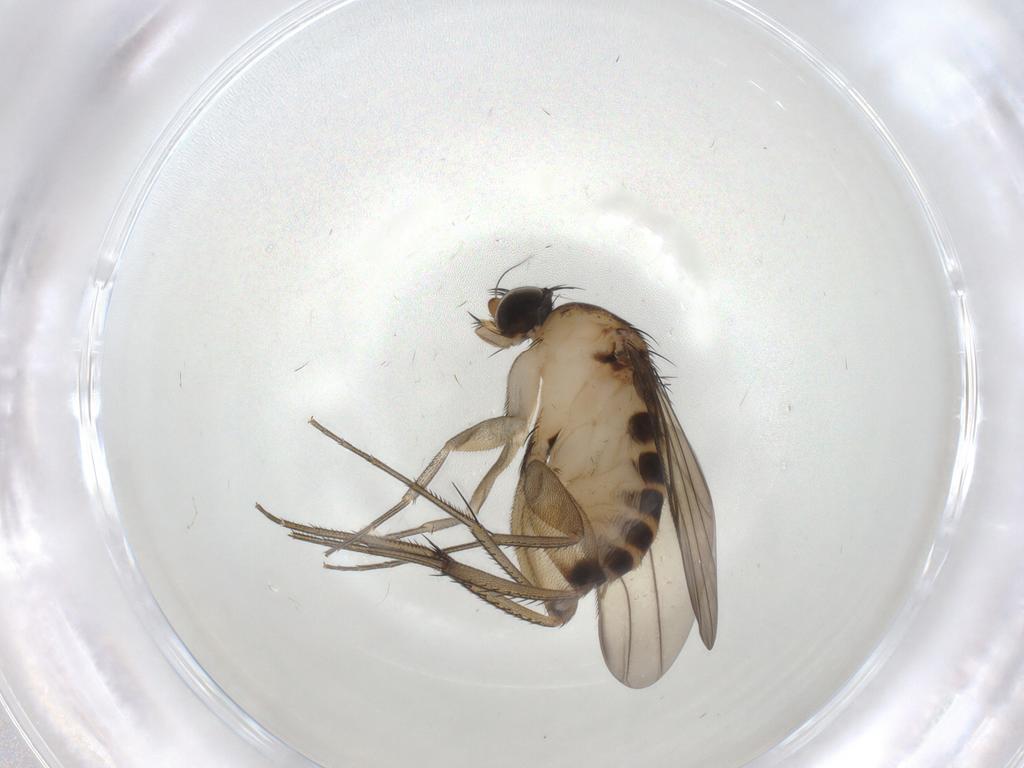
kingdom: Animalia
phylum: Arthropoda
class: Insecta
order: Diptera
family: Phoridae
